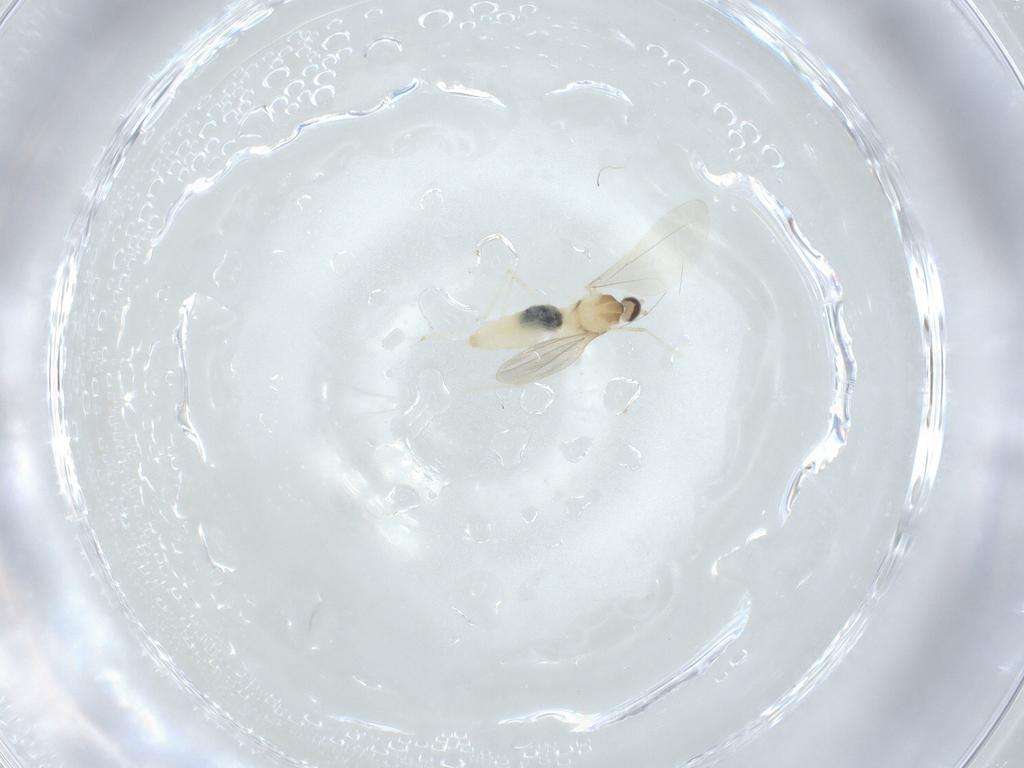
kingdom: Animalia
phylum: Arthropoda
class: Insecta
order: Diptera
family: Cecidomyiidae
